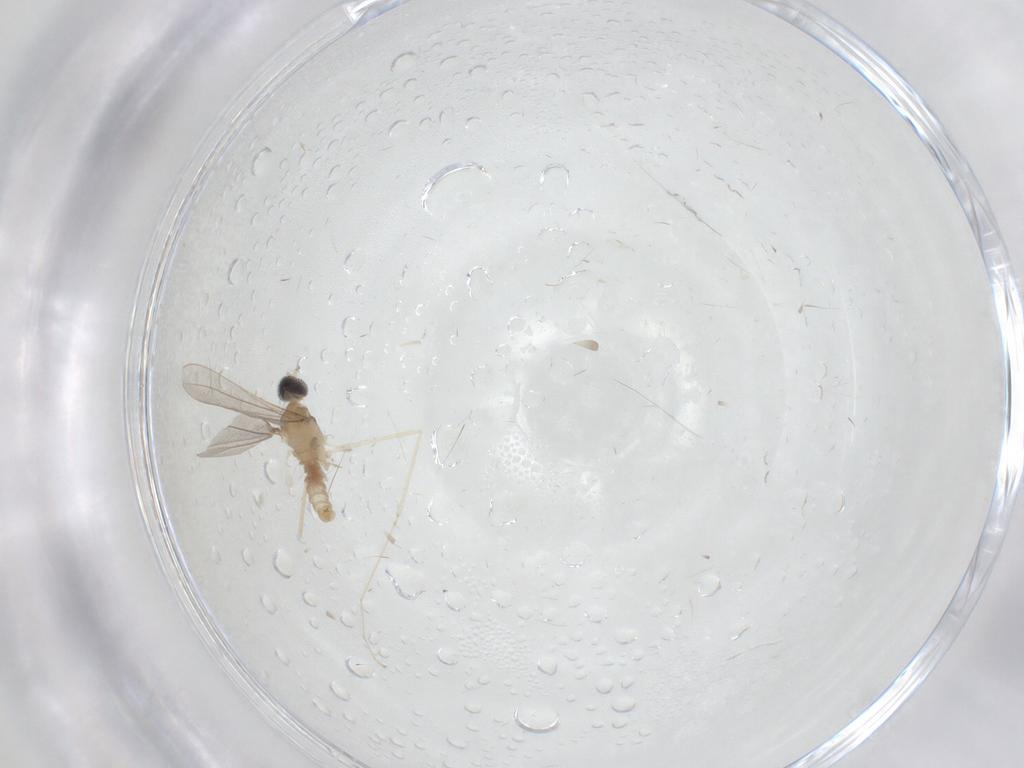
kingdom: Animalia
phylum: Arthropoda
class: Insecta
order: Diptera
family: Cecidomyiidae
